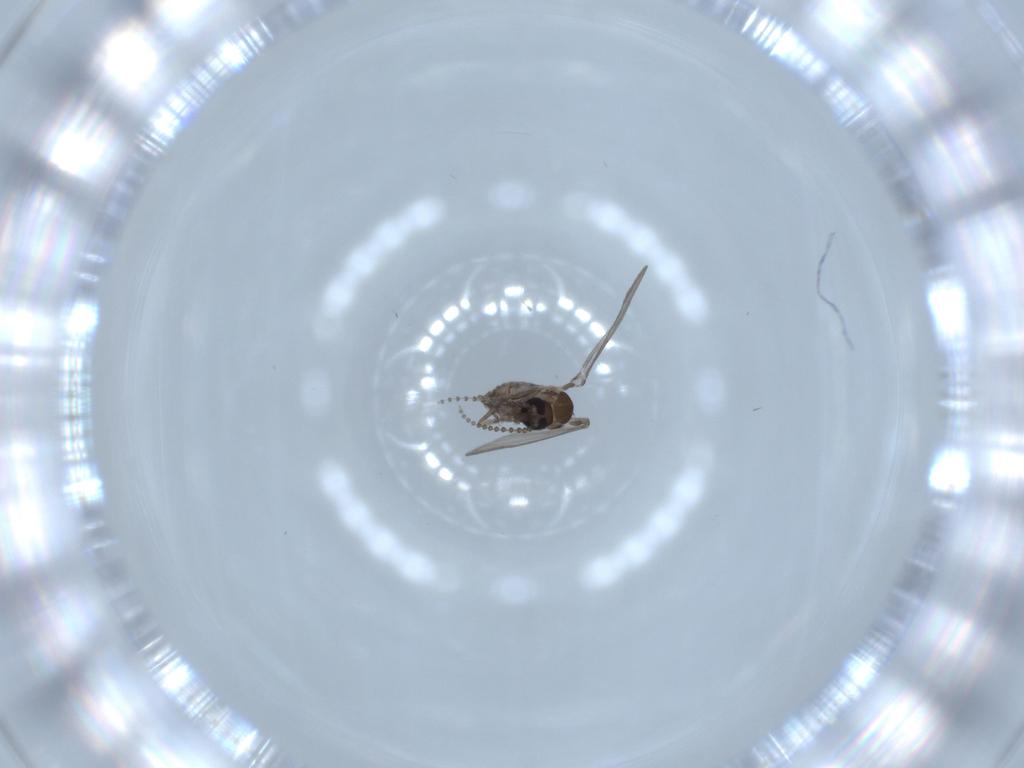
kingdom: Animalia
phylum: Arthropoda
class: Insecta
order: Diptera
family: Psychodidae
